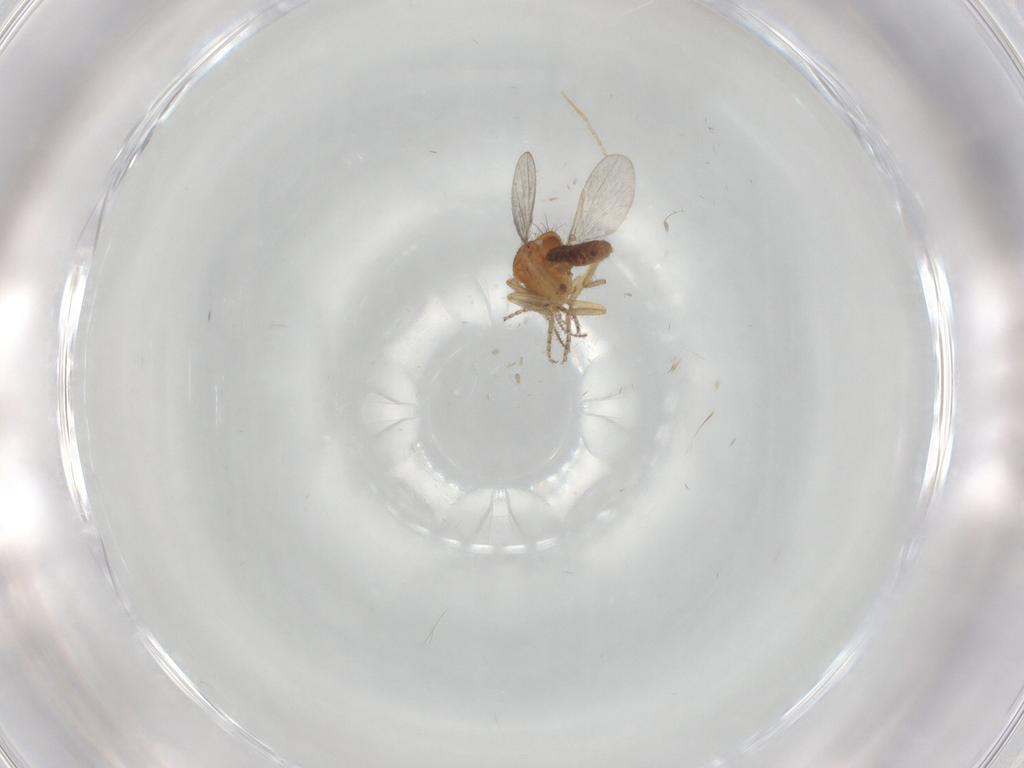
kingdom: Animalia
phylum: Arthropoda
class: Insecta
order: Diptera
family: Ceratopogonidae
